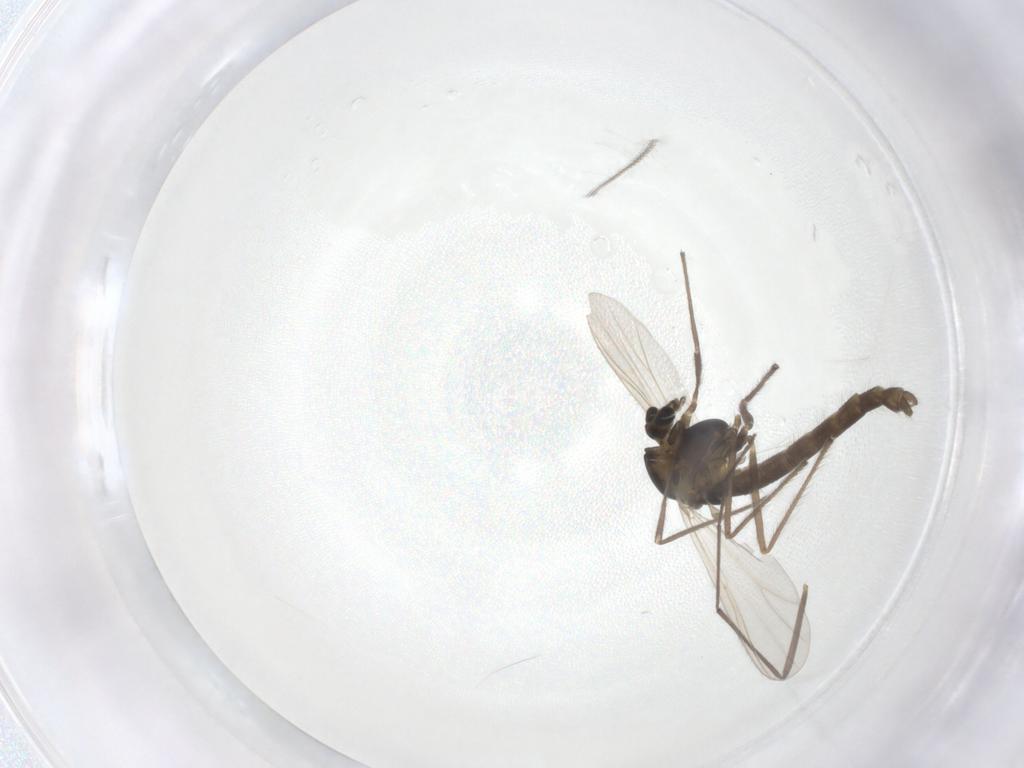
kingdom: Animalia
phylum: Arthropoda
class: Insecta
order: Diptera
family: Chironomidae
